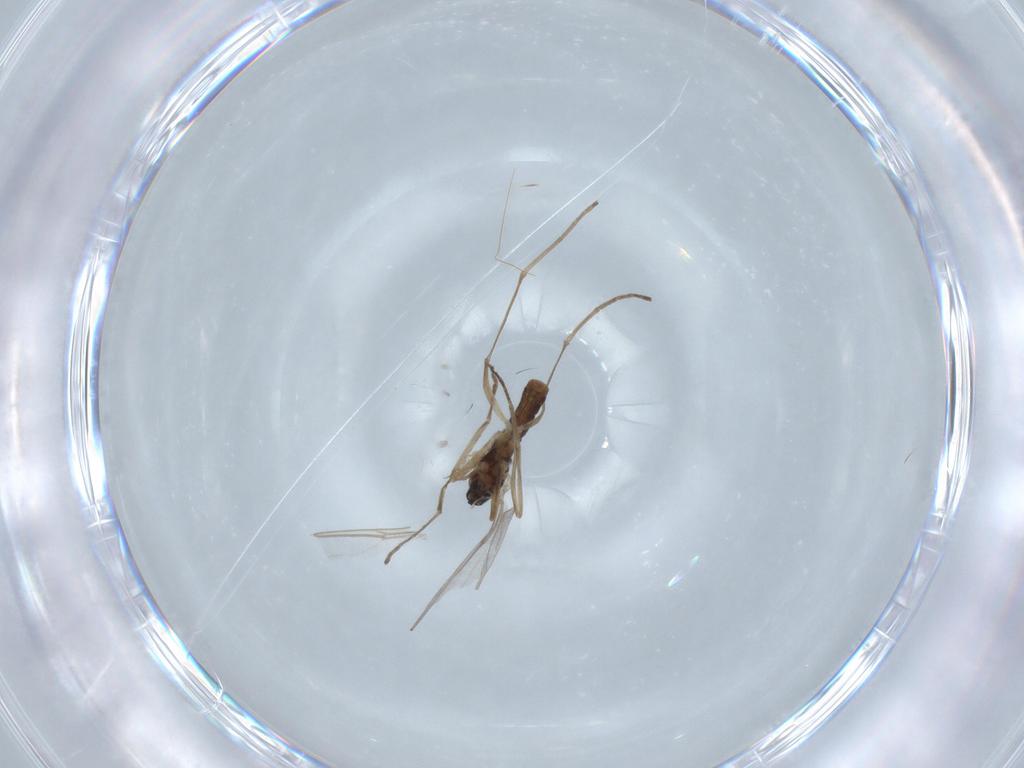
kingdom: Animalia
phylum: Arthropoda
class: Insecta
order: Diptera
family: Cecidomyiidae
